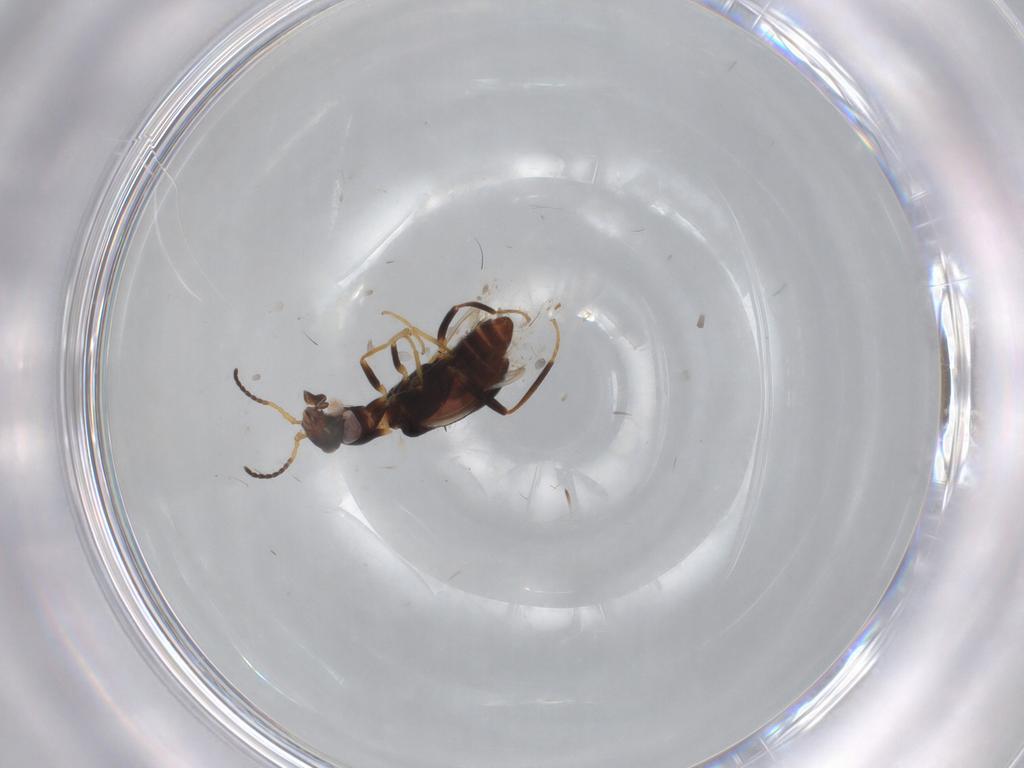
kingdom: Animalia
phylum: Arthropoda
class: Insecta
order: Coleoptera
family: Melyridae
